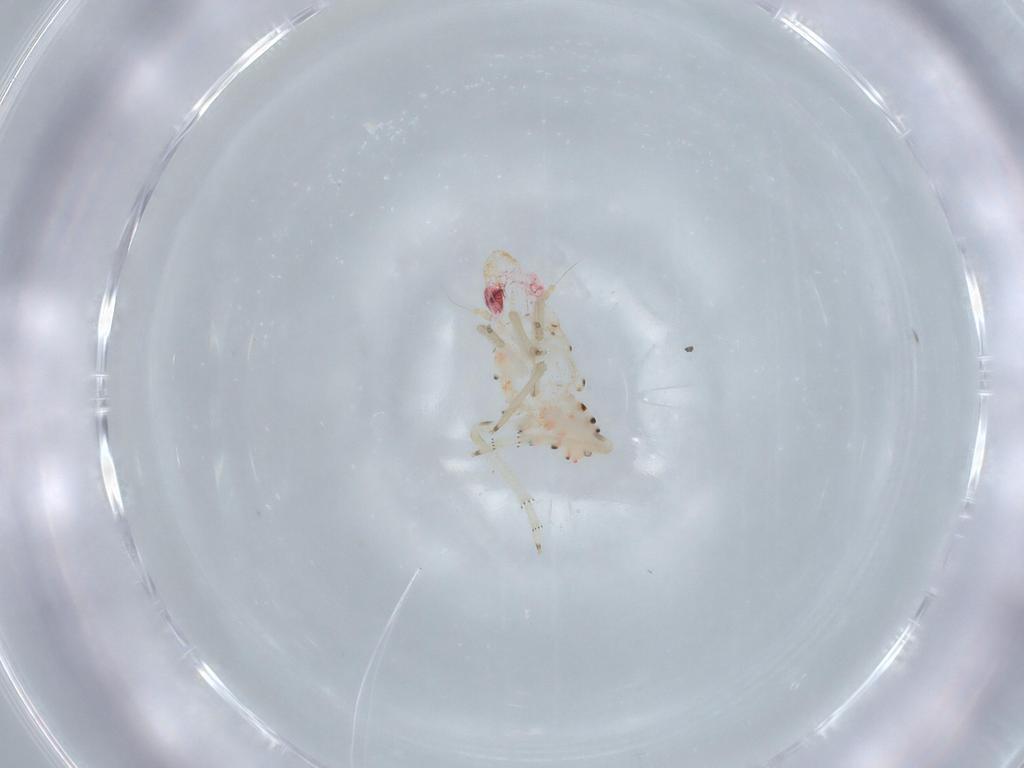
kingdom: Animalia
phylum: Arthropoda
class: Insecta
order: Hemiptera
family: Tropiduchidae
